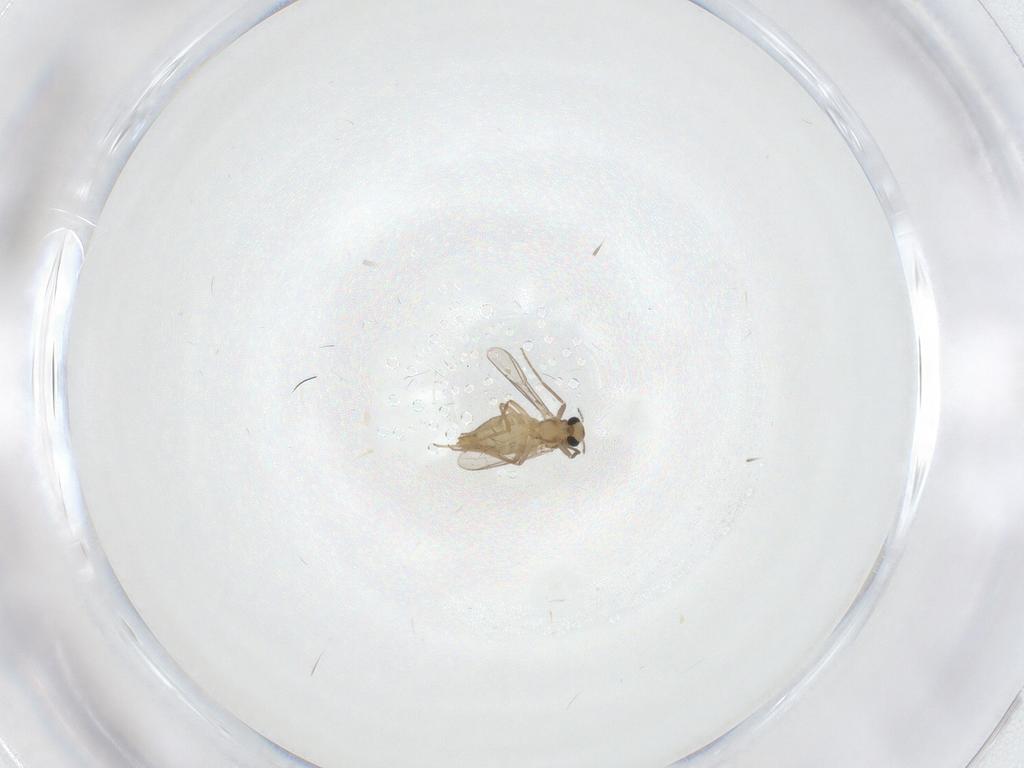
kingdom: Animalia
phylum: Arthropoda
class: Insecta
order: Diptera
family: Chironomidae
